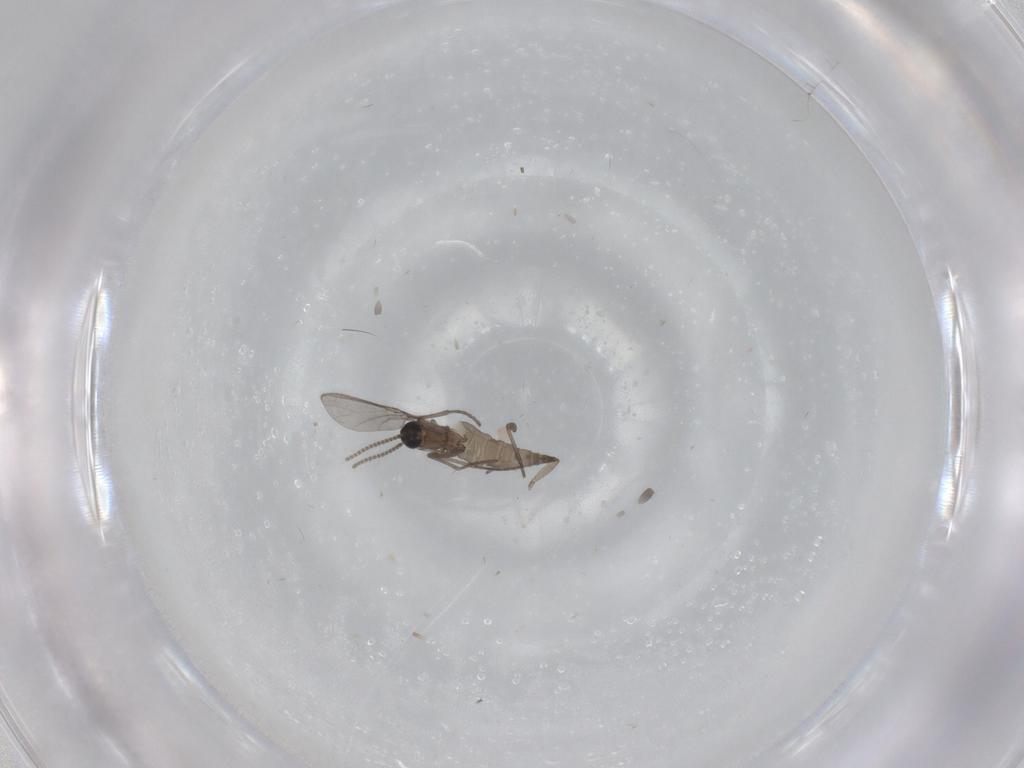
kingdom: Animalia
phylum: Arthropoda
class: Insecta
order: Diptera
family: Sciaridae
